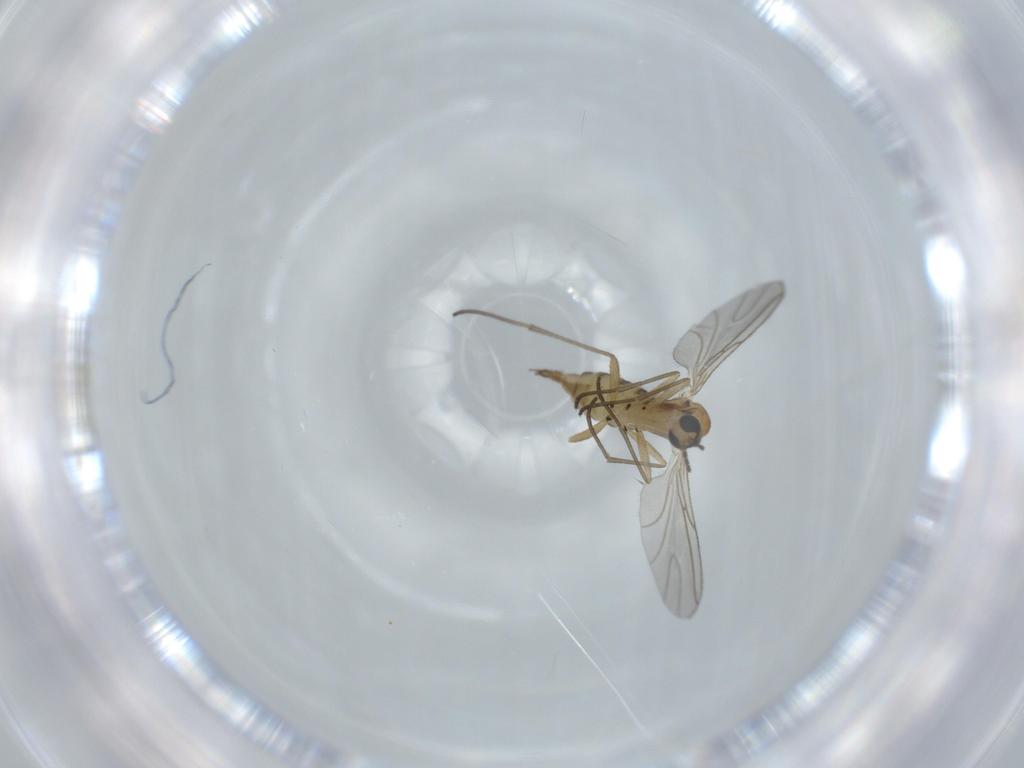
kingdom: Animalia
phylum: Arthropoda
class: Insecta
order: Diptera
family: Sciaridae
